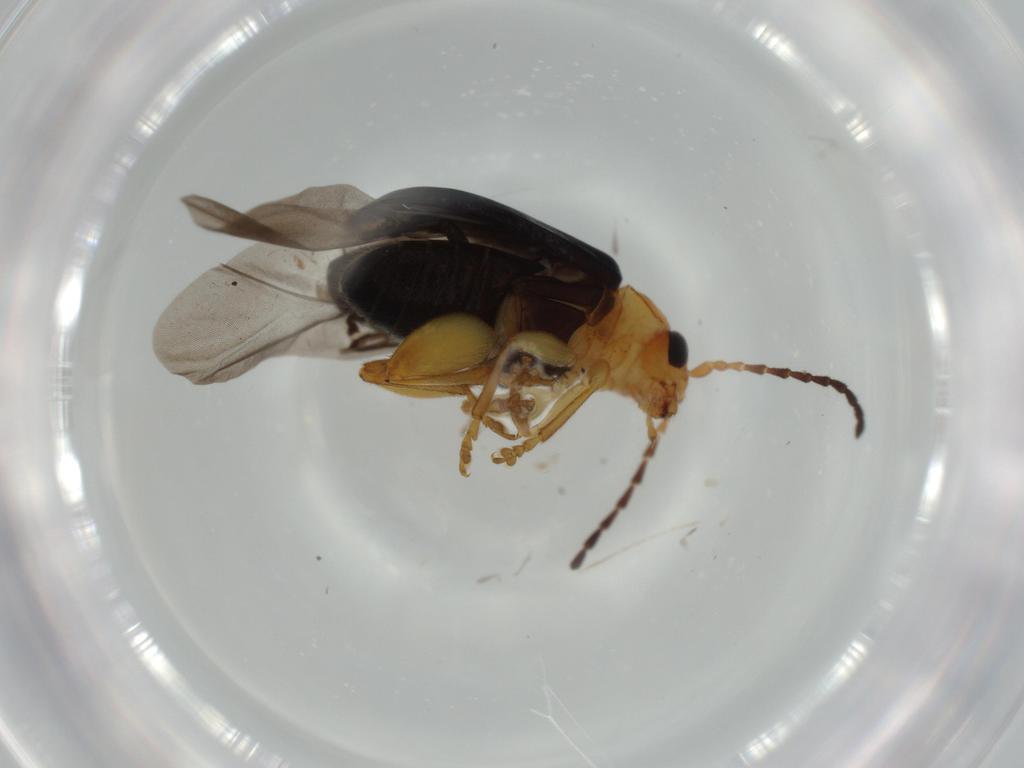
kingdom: Animalia
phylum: Arthropoda
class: Insecta
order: Coleoptera
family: Chrysomelidae
